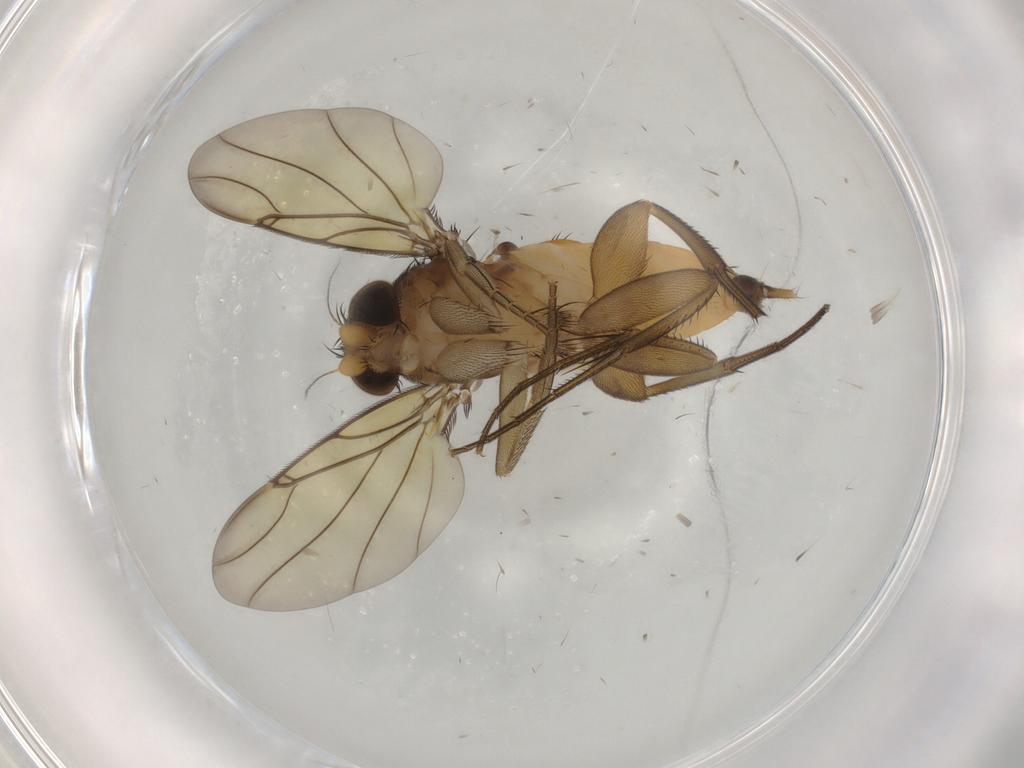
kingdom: Animalia
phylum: Arthropoda
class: Insecta
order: Diptera
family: Phoridae
